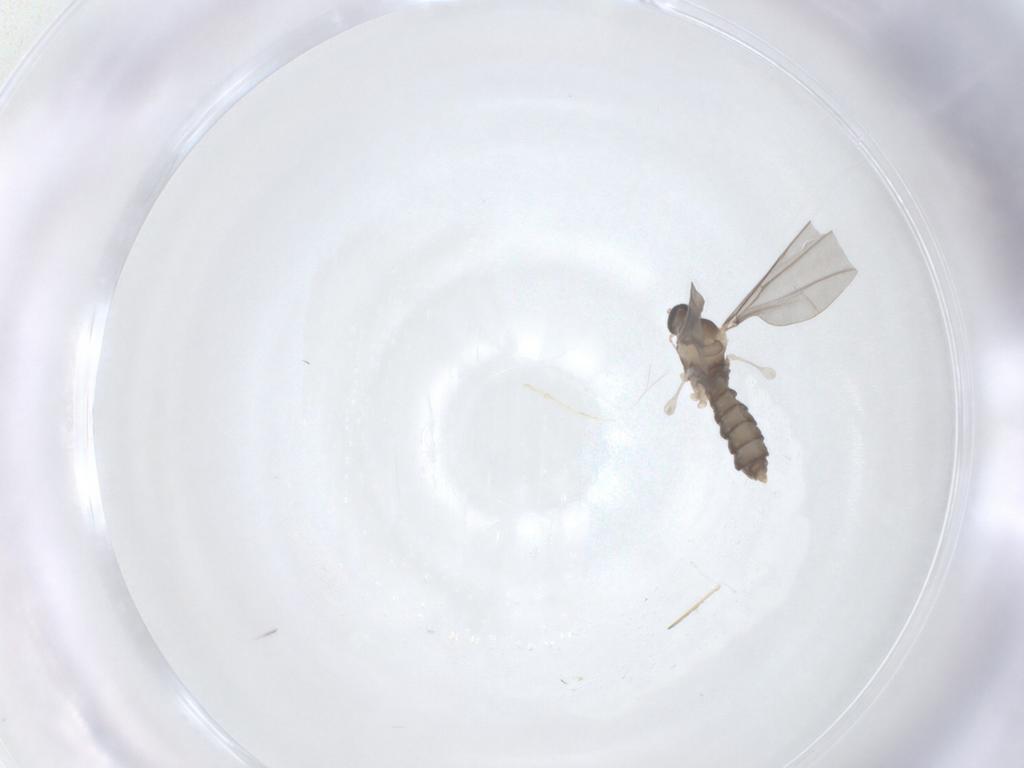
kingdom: Animalia
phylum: Arthropoda
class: Insecta
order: Diptera
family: Cecidomyiidae
